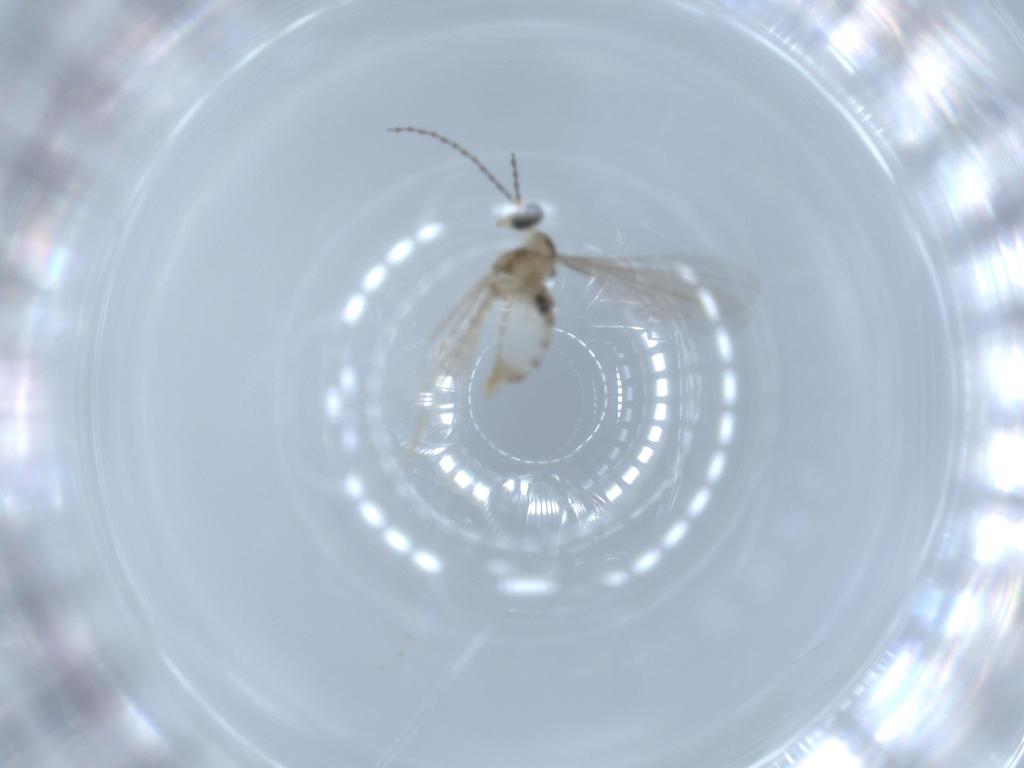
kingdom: Animalia
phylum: Arthropoda
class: Insecta
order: Diptera
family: Cecidomyiidae
